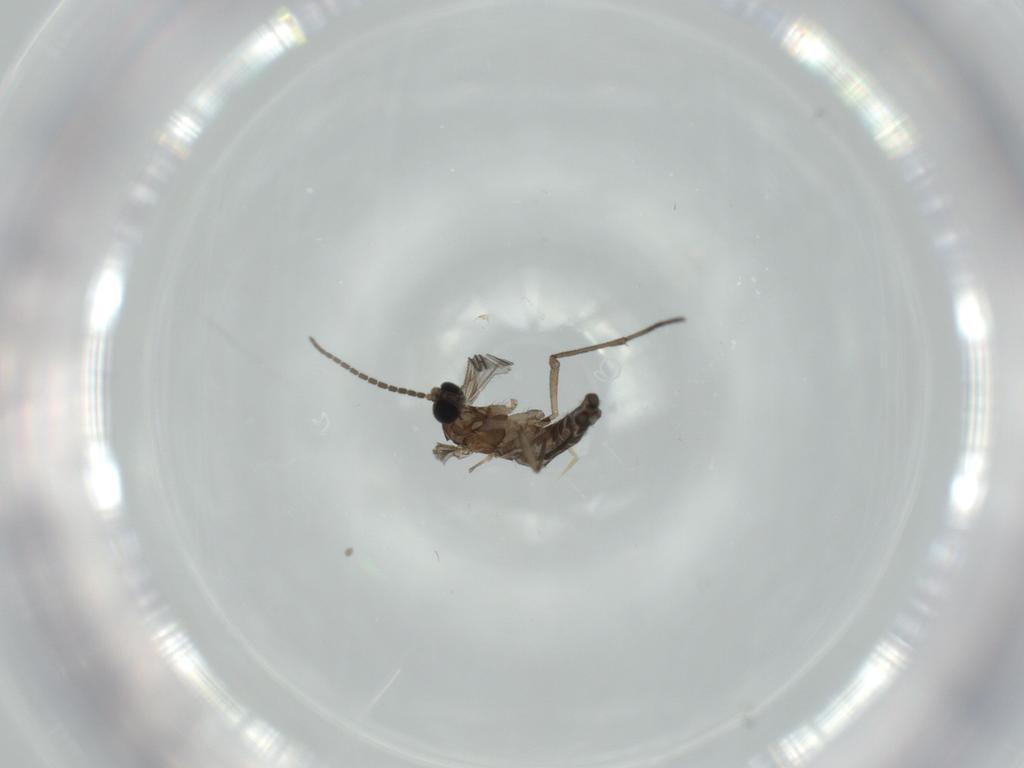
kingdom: Animalia
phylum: Arthropoda
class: Insecta
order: Diptera
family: Sciaridae
